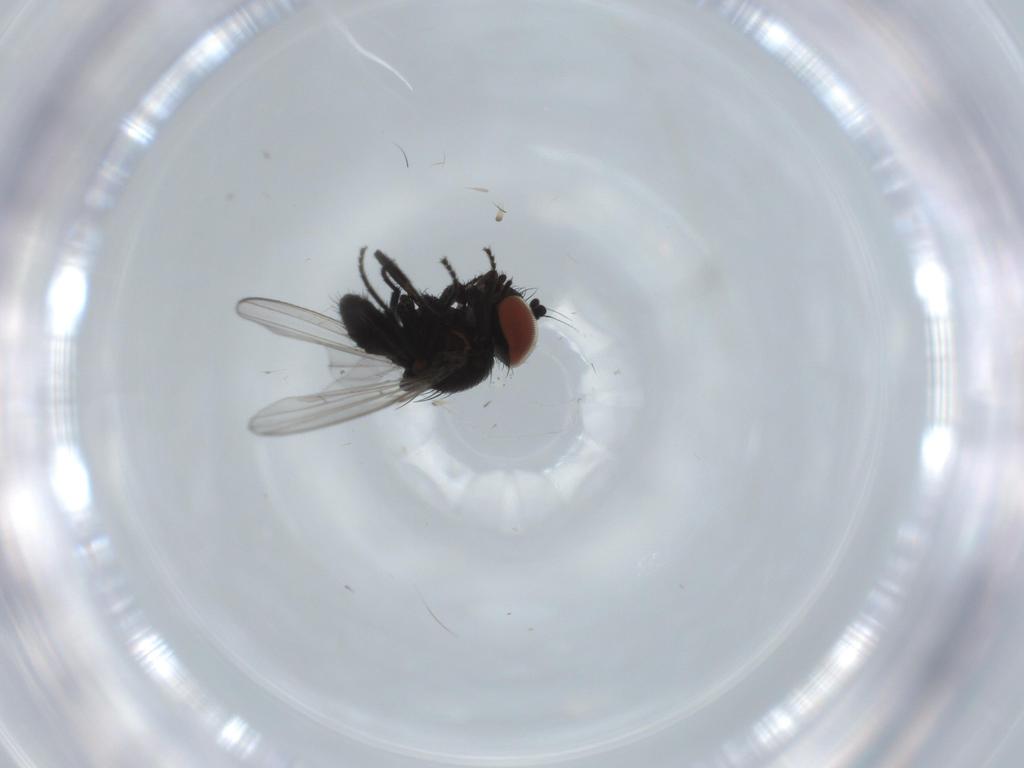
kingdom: Animalia
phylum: Arthropoda
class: Insecta
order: Diptera
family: Milichiidae
